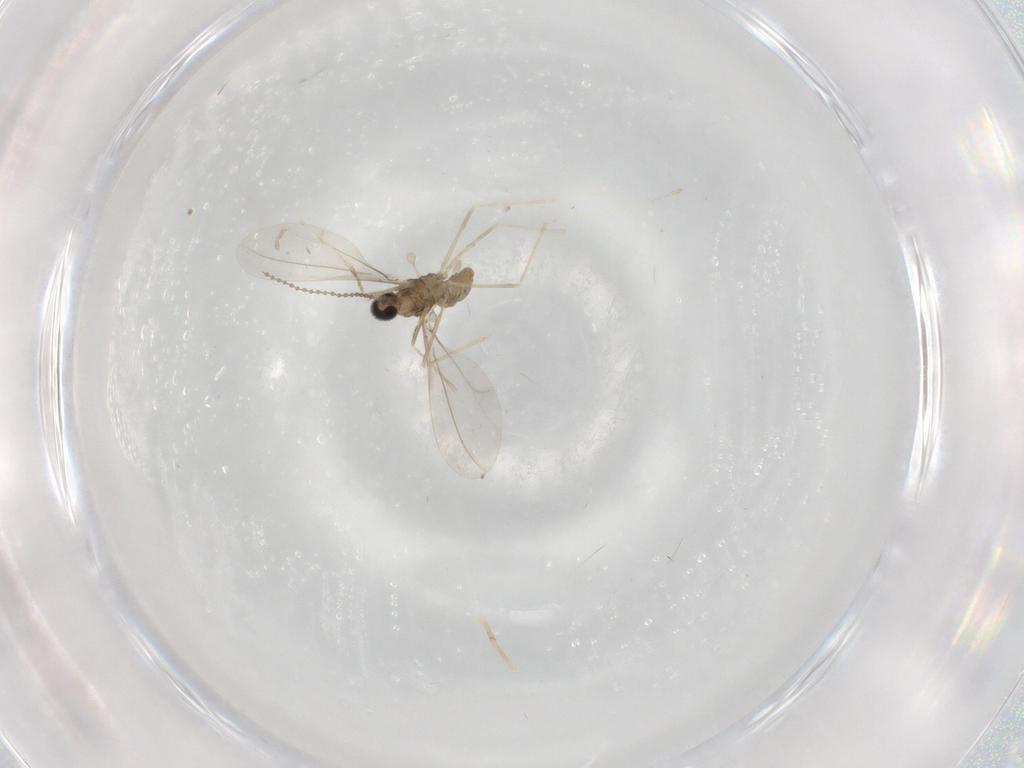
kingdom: Animalia
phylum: Arthropoda
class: Insecta
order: Diptera
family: Cecidomyiidae
